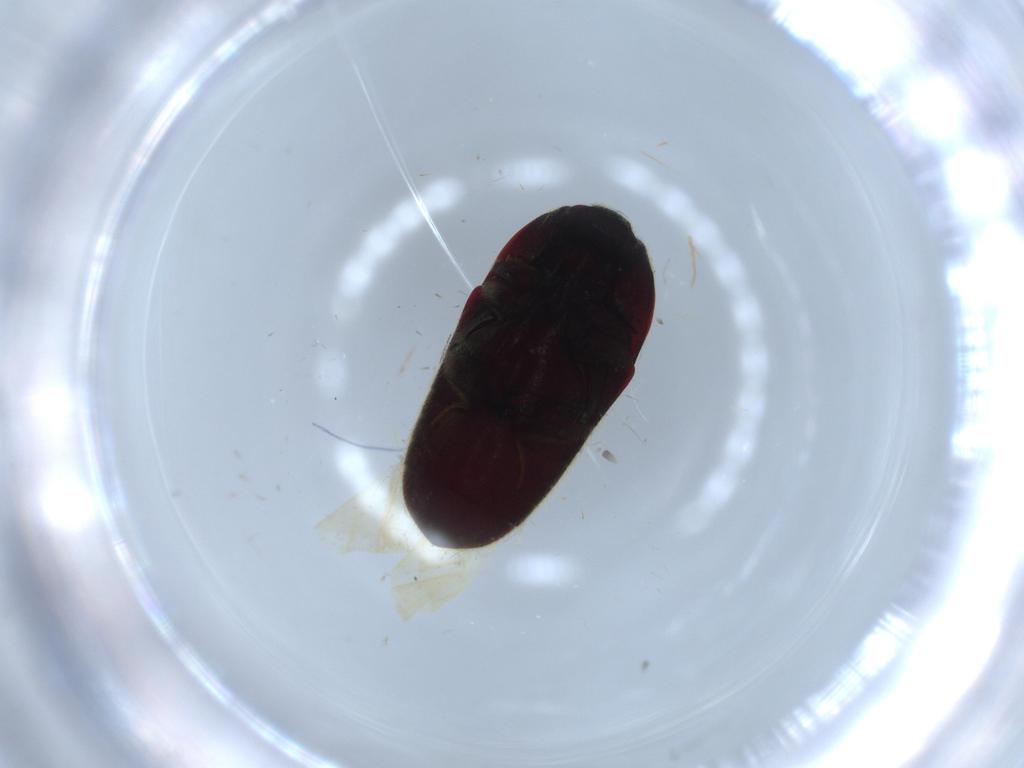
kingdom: Animalia
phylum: Arthropoda
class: Insecta
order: Coleoptera
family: Throscidae
